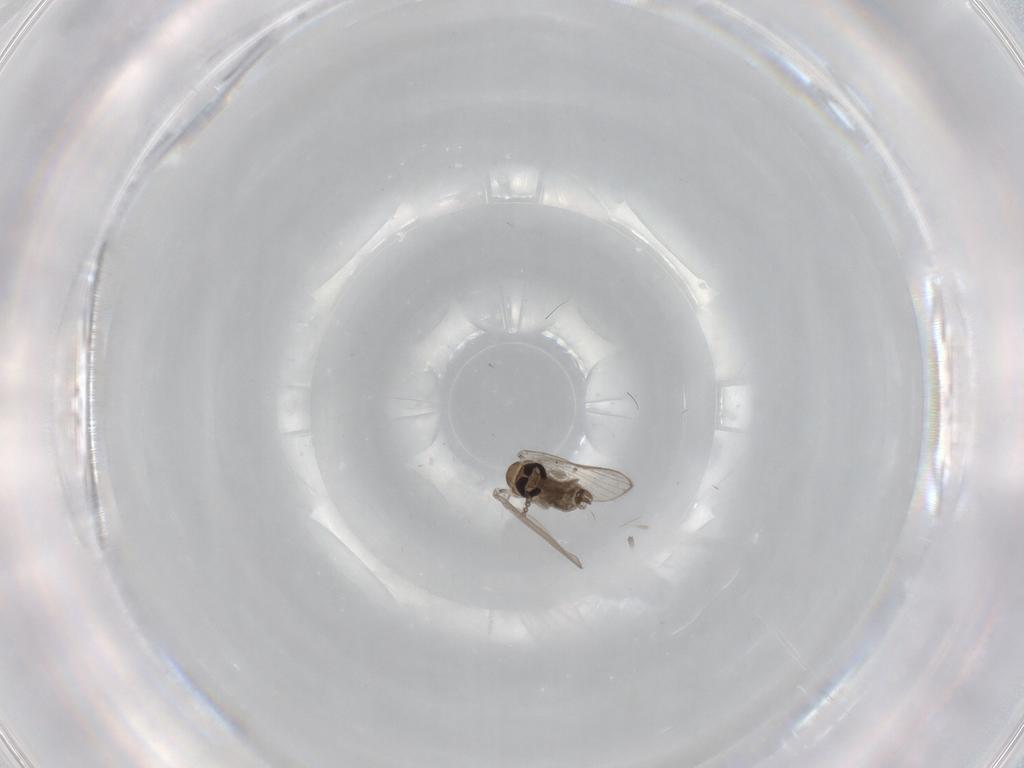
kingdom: Animalia
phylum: Arthropoda
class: Insecta
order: Diptera
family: Psychodidae
